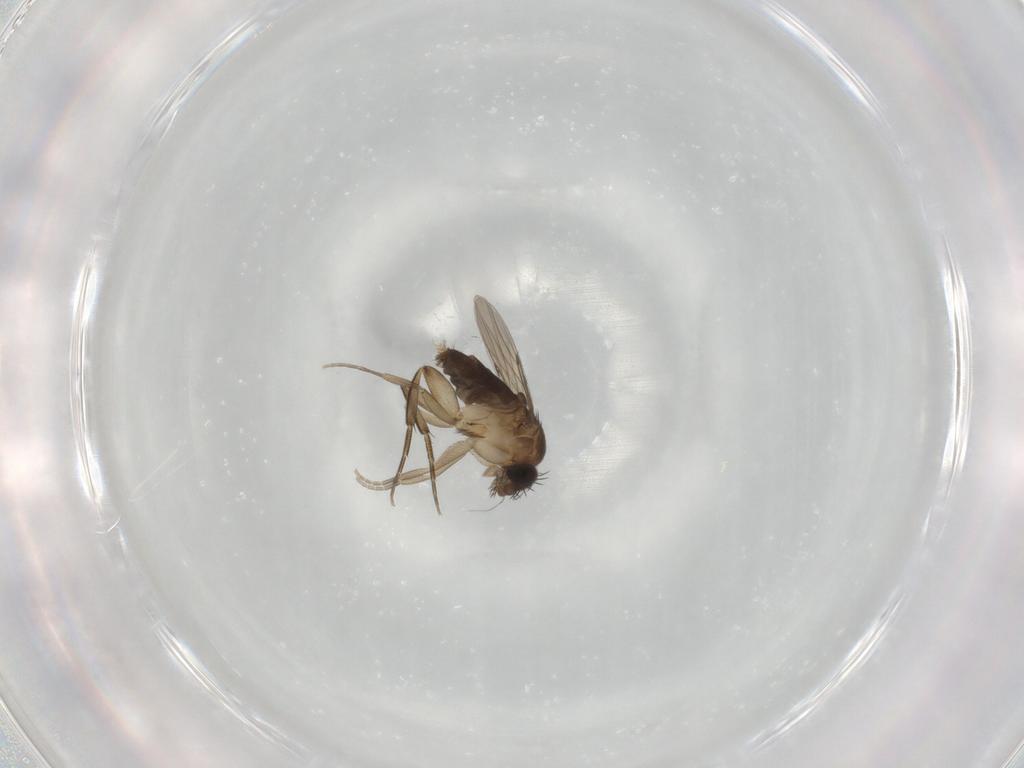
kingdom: Animalia
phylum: Arthropoda
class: Insecta
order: Diptera
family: Phoridae
